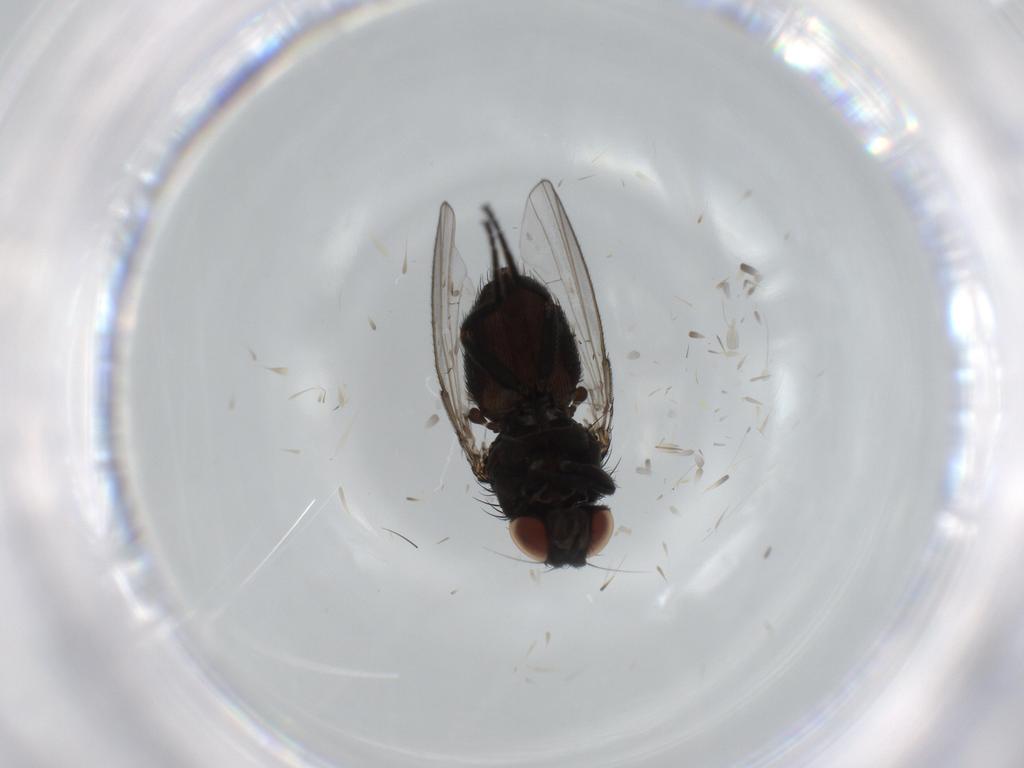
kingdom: Animalia
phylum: Arthropoda
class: Insecta
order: Diptera
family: Milichiidae
